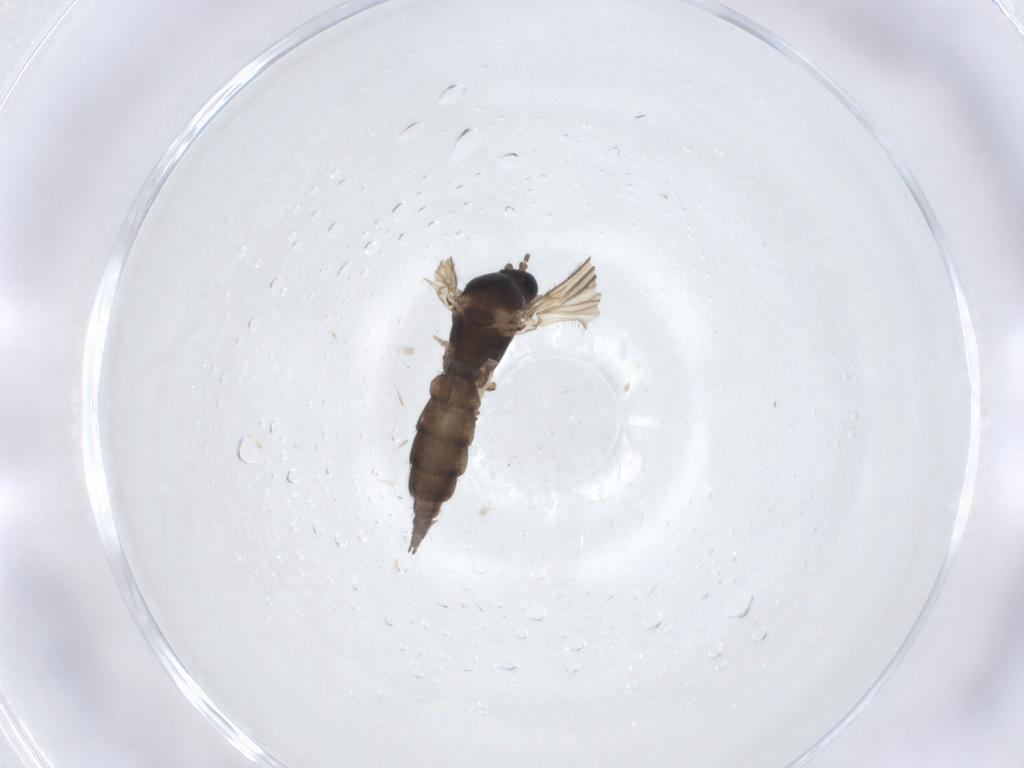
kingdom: Animalia
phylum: Arthropoda
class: Insecta
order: Diptera
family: Sciaridae
